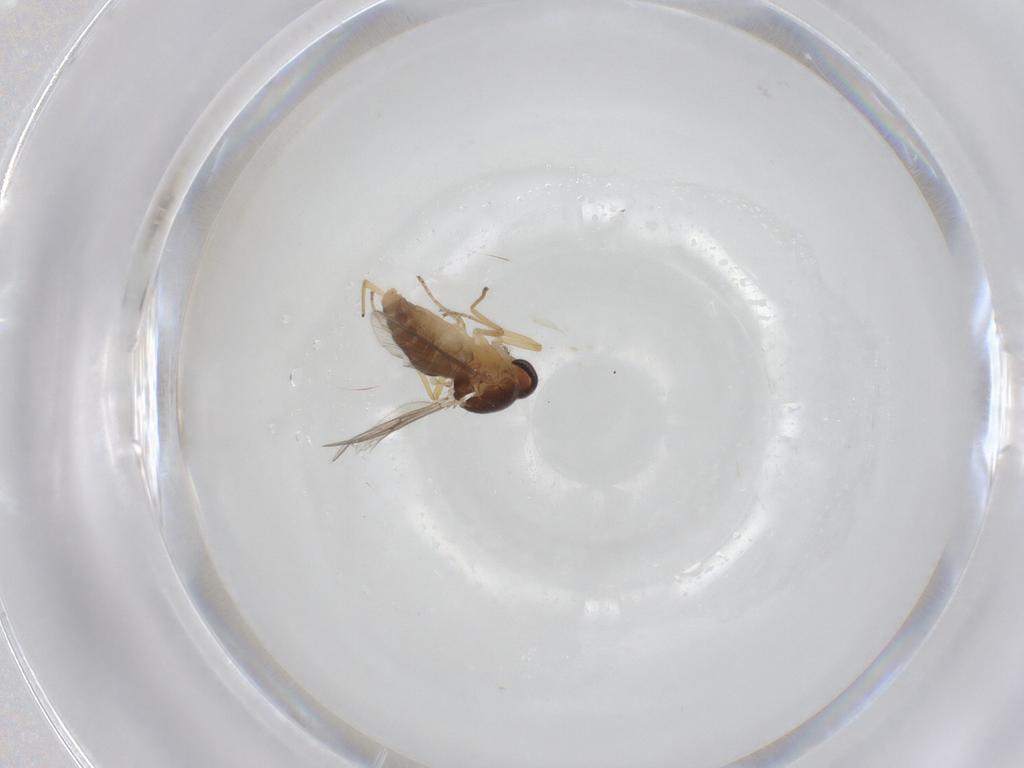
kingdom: Animalia
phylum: Arthropoda
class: Insecta
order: Diptera
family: Ceratopogonidae
